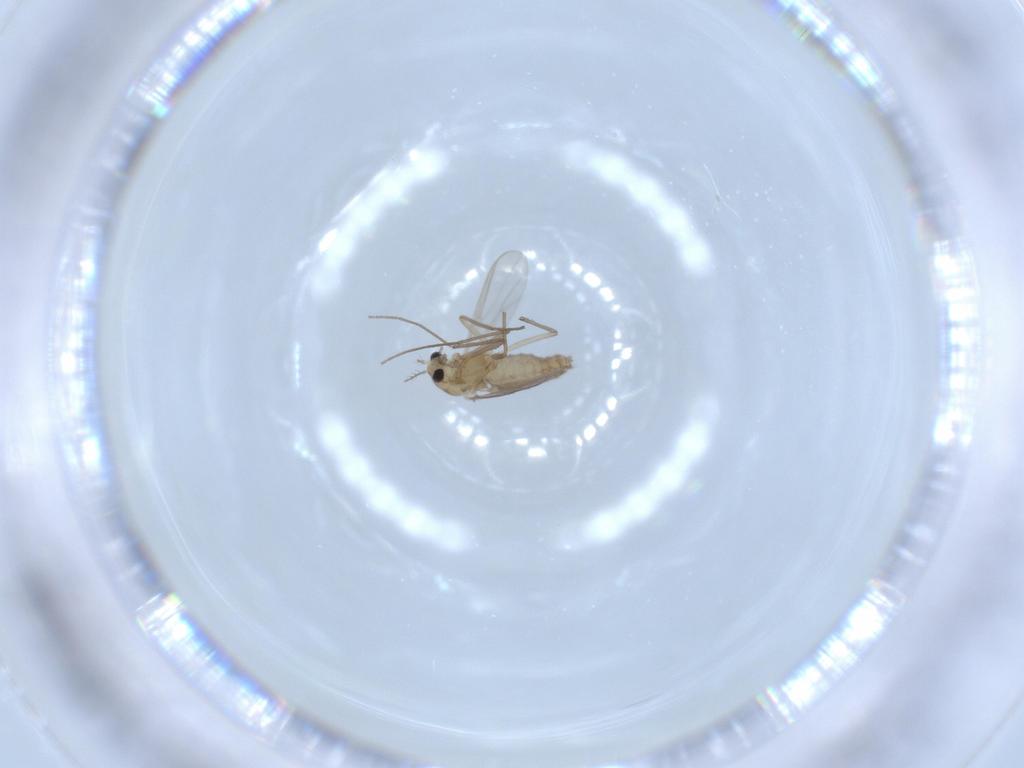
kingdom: Animalia
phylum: Arthropoda
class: Insecta
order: Diptera
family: Chironomidae
